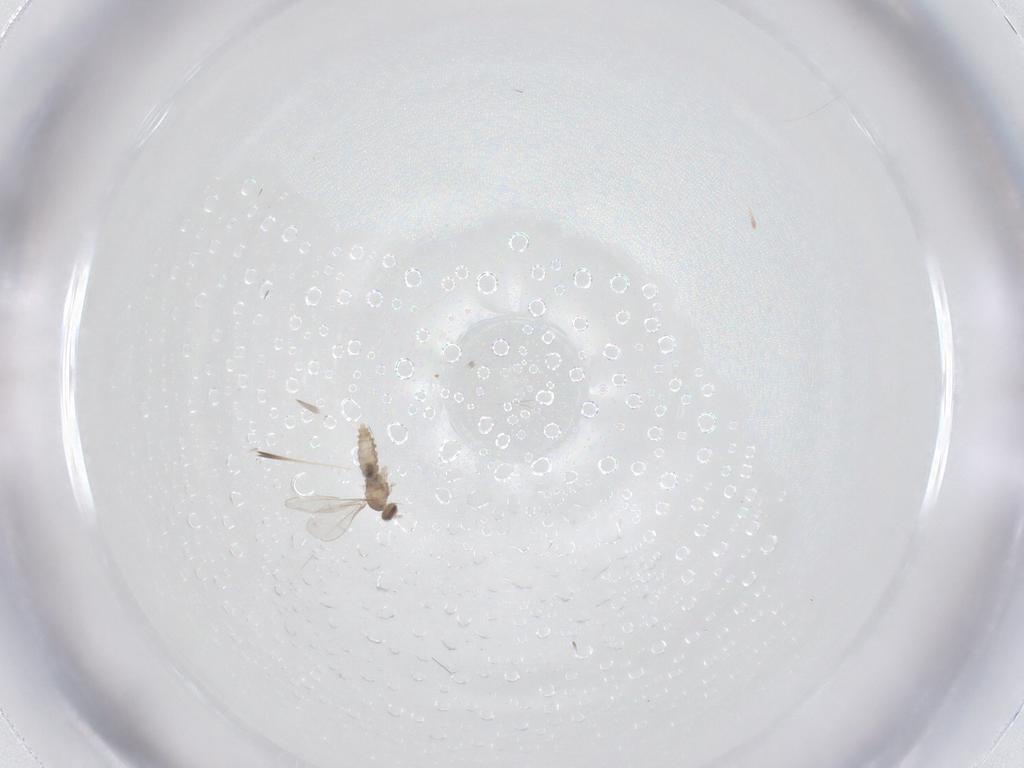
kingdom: Animalia
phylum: Arthropoda
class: Insecta
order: Diptera
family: Cecidomyiidae
